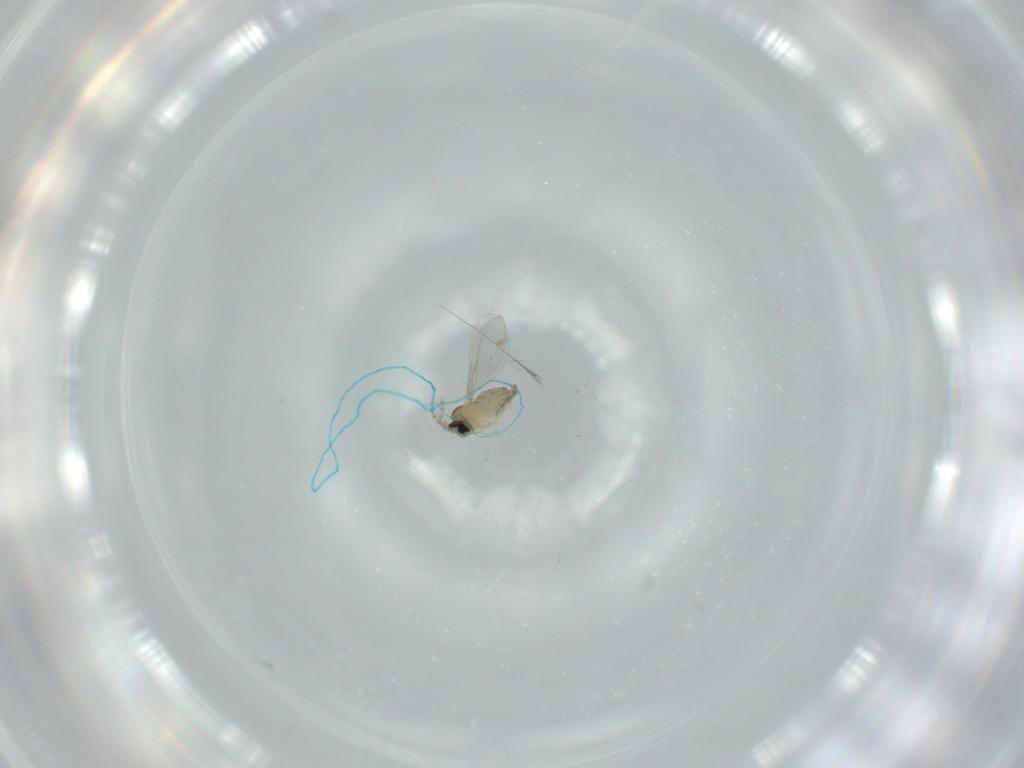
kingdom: Animalia
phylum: Arthropoda
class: Insecta
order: Diptera
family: Cecidomyiidae
